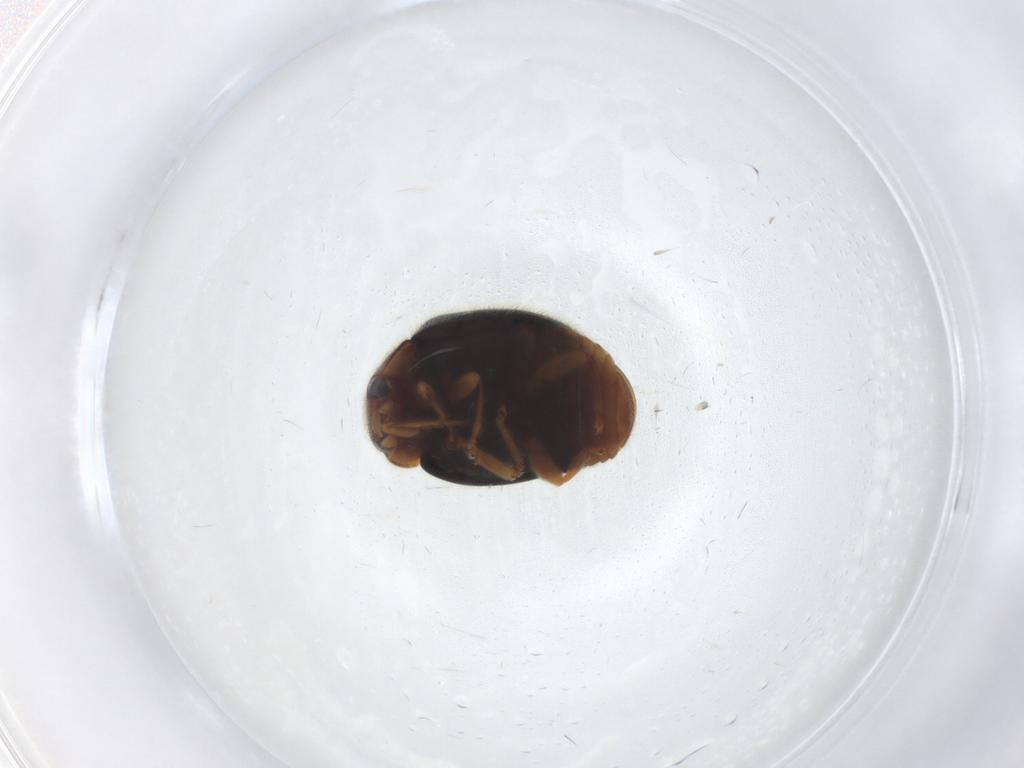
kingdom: Animalia
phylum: Arthropoda
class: Insecta
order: Coleoptera
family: Coccinellidae
